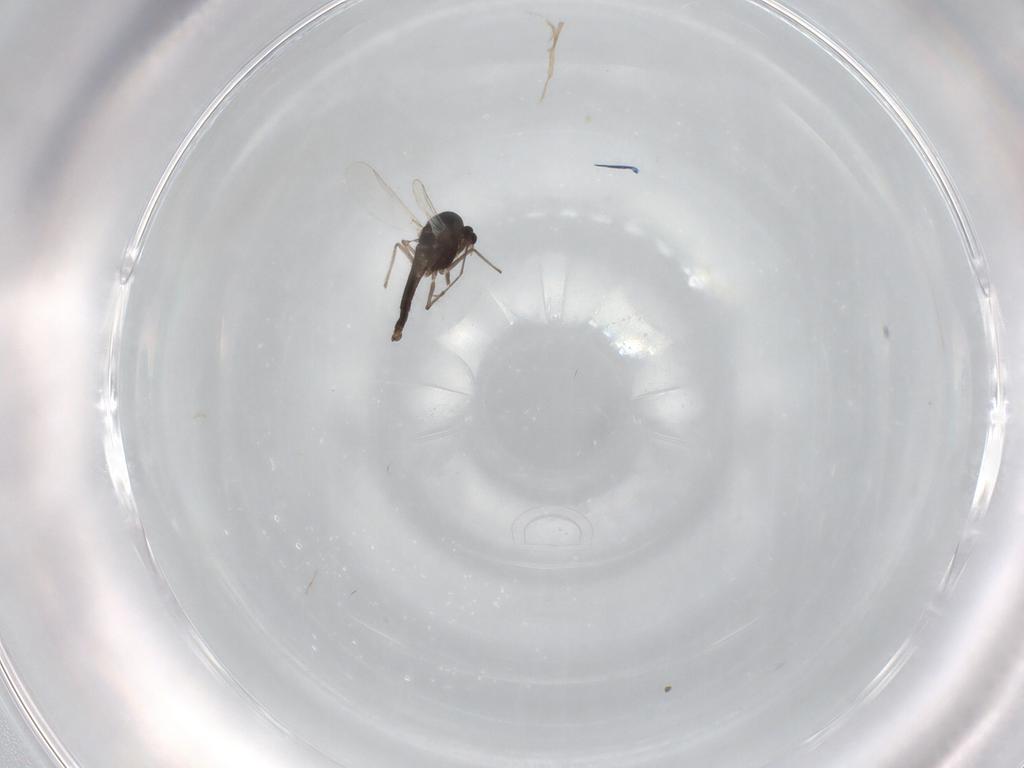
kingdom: Animalia
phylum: Arthropoda
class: Insecta
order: Diptera
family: Chironomidae
